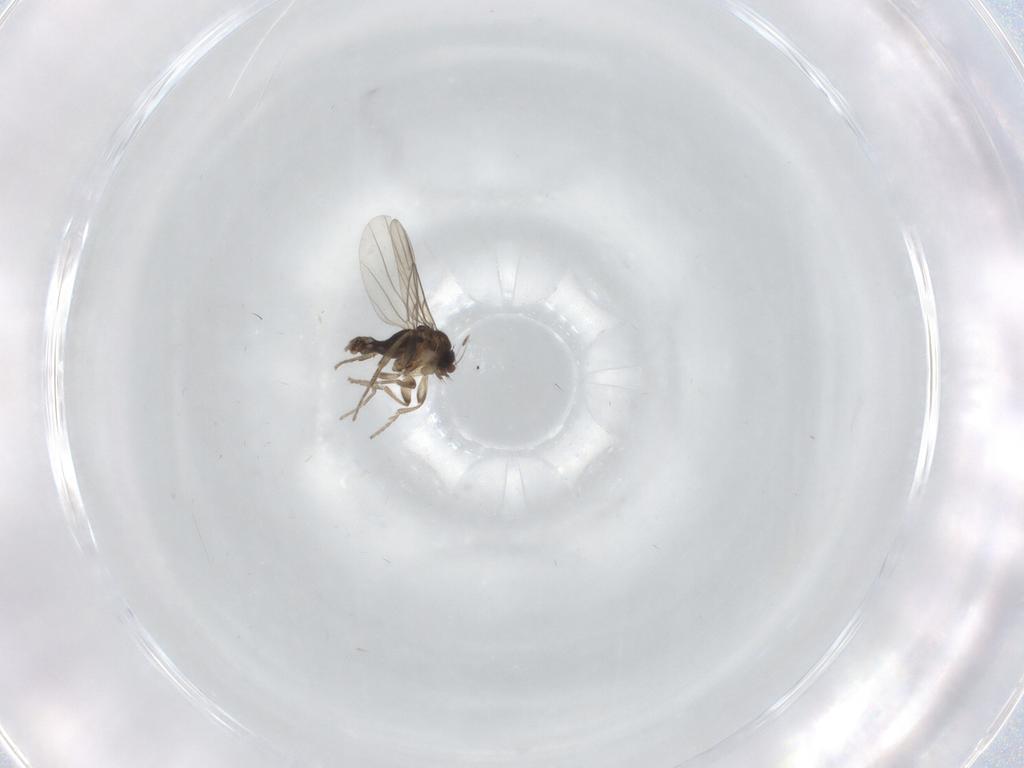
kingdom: Animalia
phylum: Arthropoda
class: Insecta
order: Diptera
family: Phoridae
